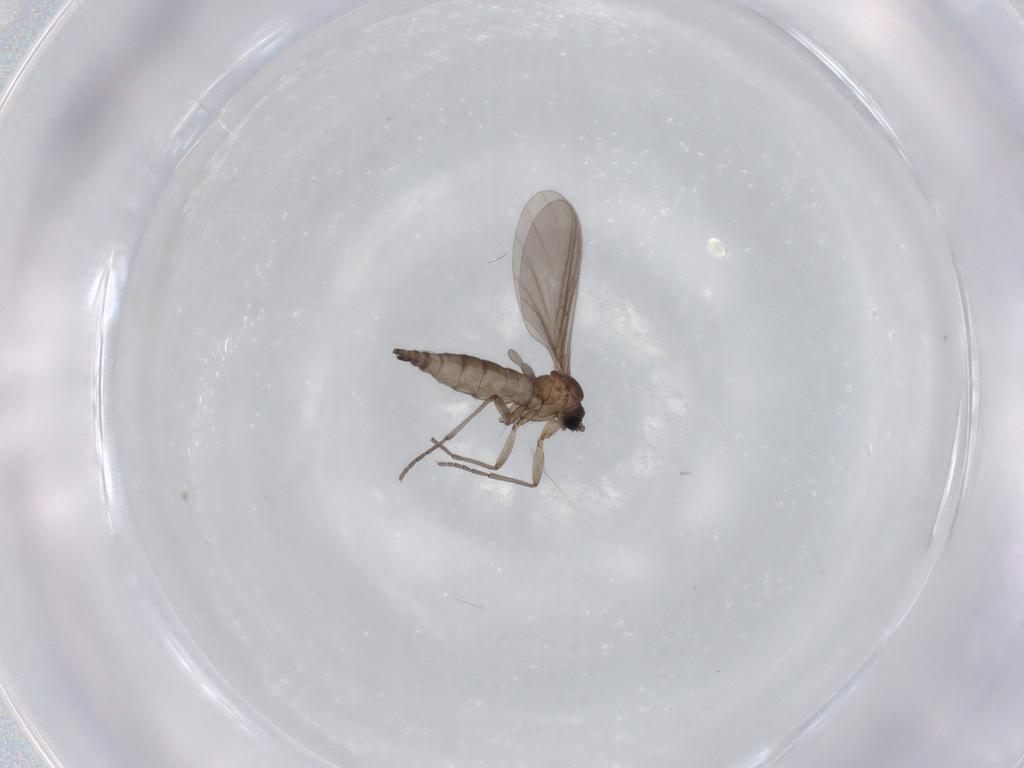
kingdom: Animalia
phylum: Arthropoda
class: Insecta
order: Diptera
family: Sciaridae
